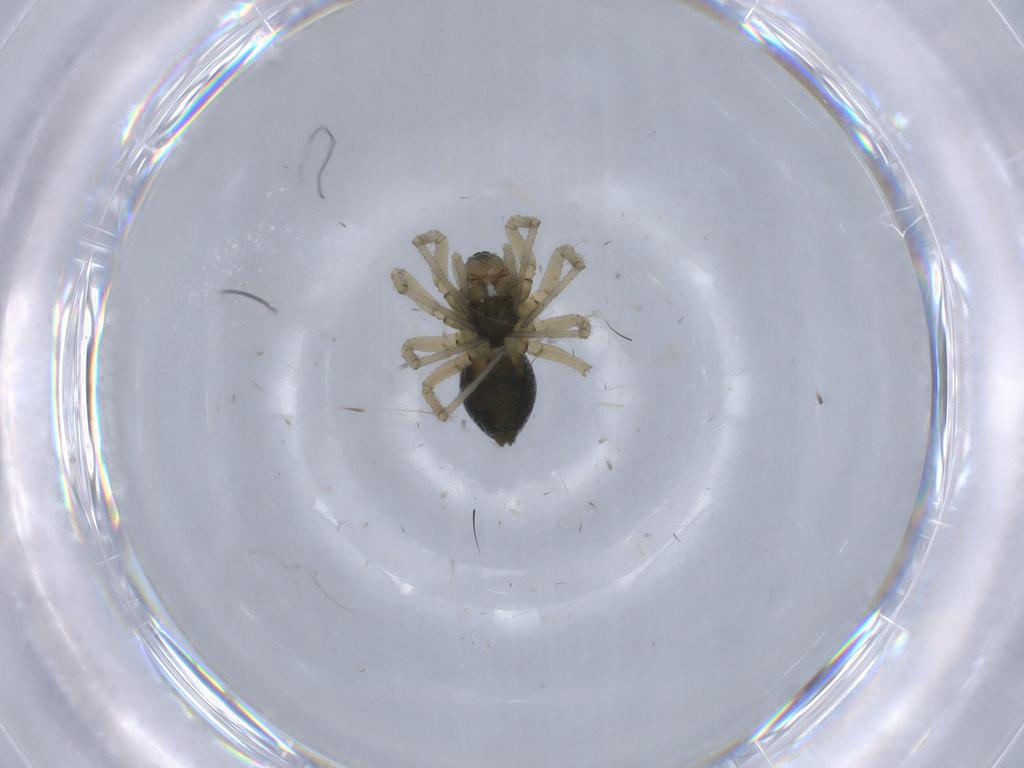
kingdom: Animalia
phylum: Arthropoda
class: Arachnida
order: Araneae
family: Linyphiidae
